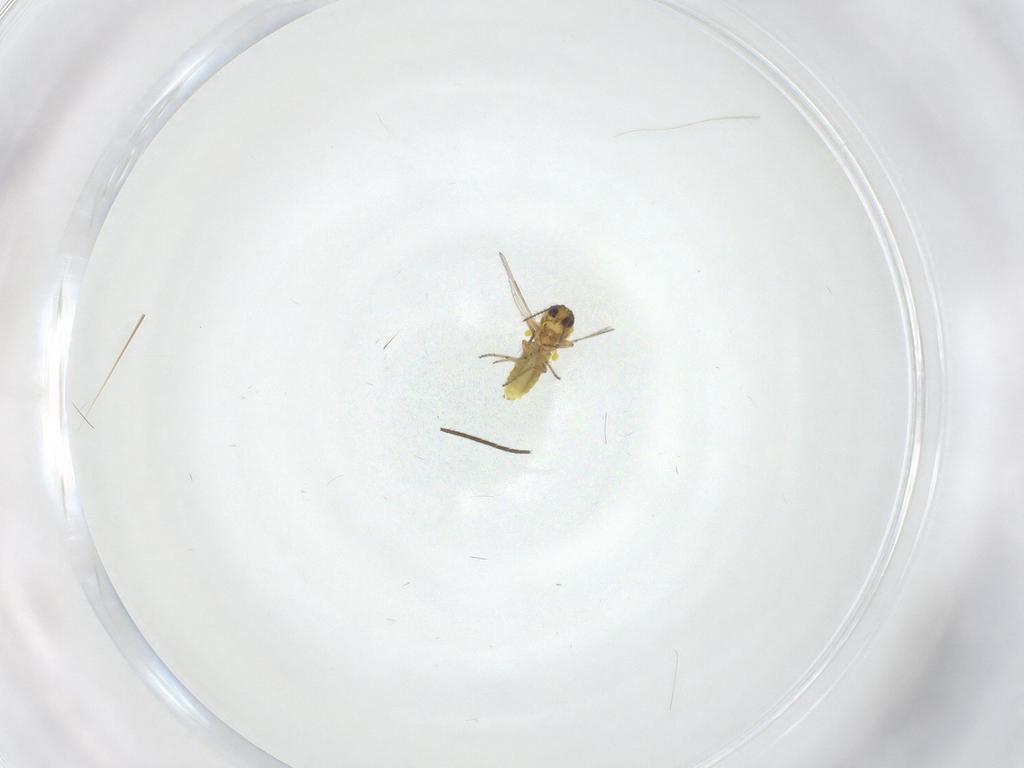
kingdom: Animalia
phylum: Arthropoda
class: Insecta
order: Diptera
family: Ceratopogonidae
